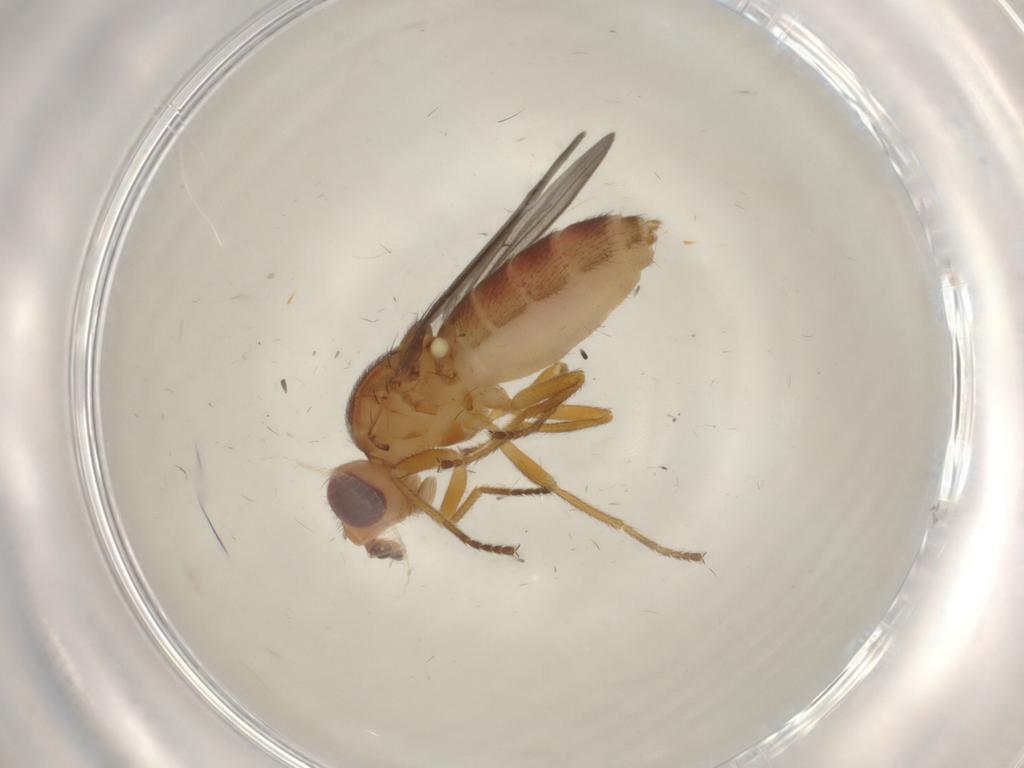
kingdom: Animalia
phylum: Arthropoda
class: Insecta
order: Diptera
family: Chloropidae
